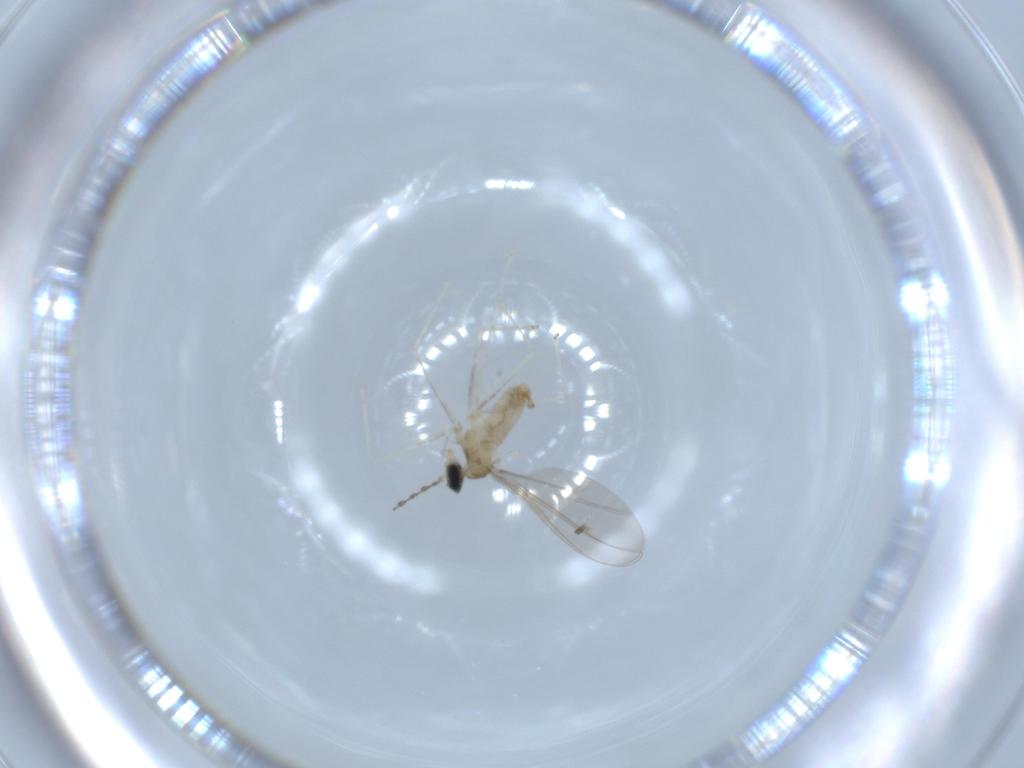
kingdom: Animalia
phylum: Arthropoda
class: Insecta
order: Diptera
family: Cecidomyiidae
